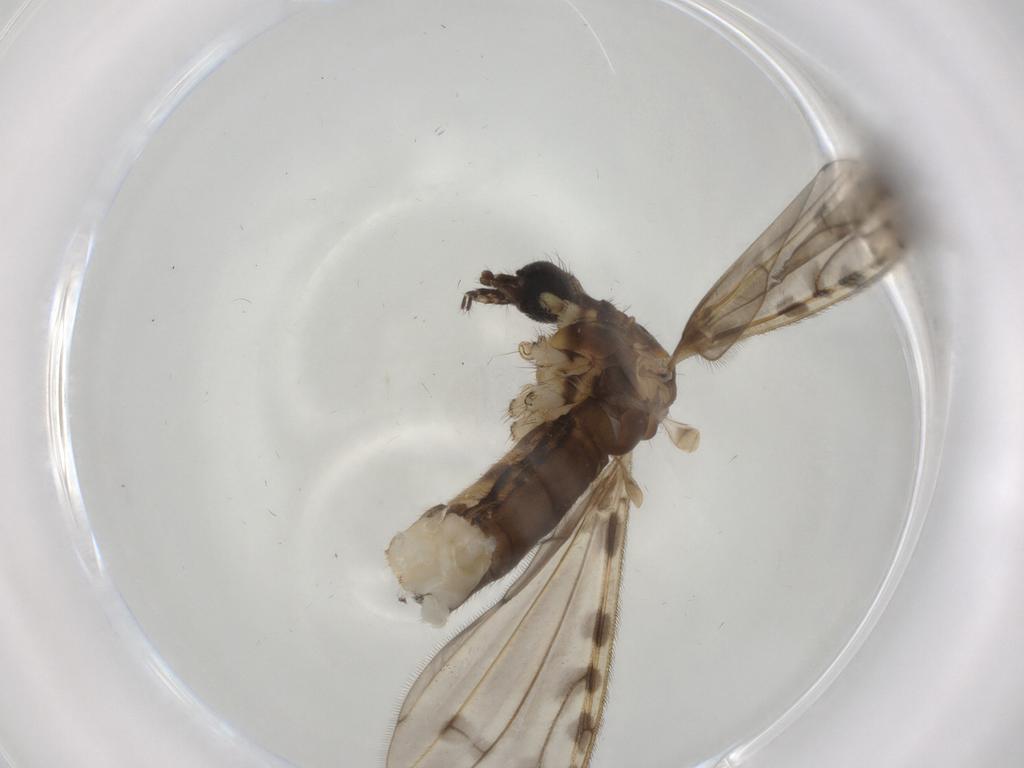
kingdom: Animalia
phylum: Arthropoda
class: Insecta
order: Diptera
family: Limoniidae
